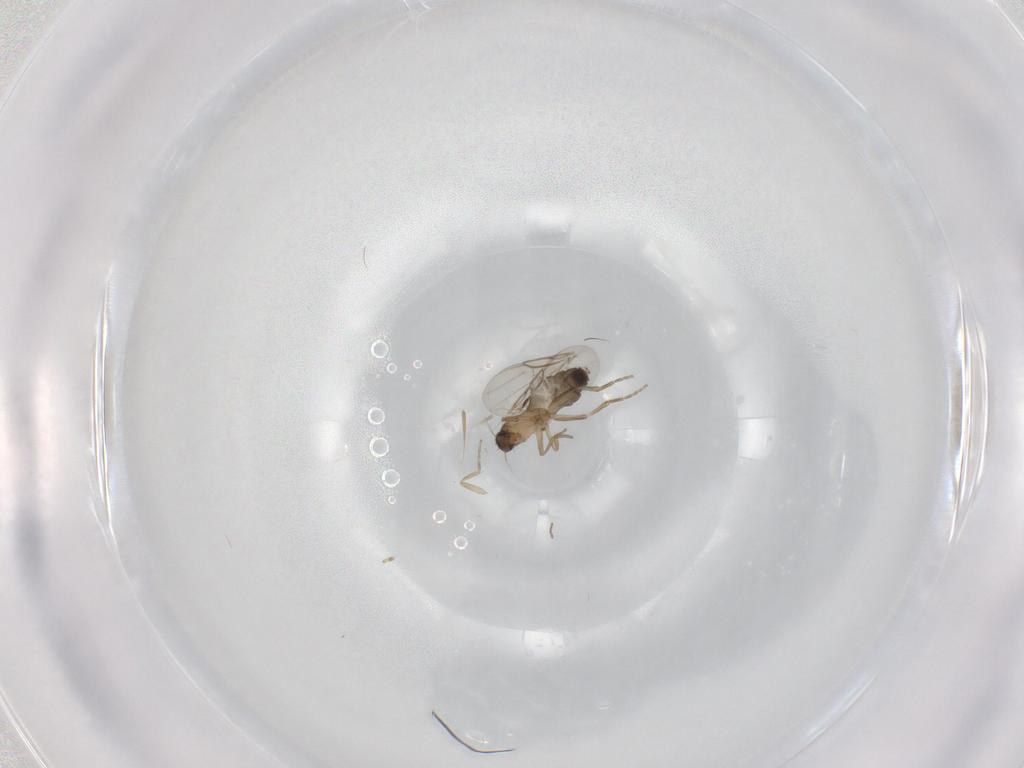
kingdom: Animalia
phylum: Arthropoda
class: Insecta
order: Diptera
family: Phoridae
